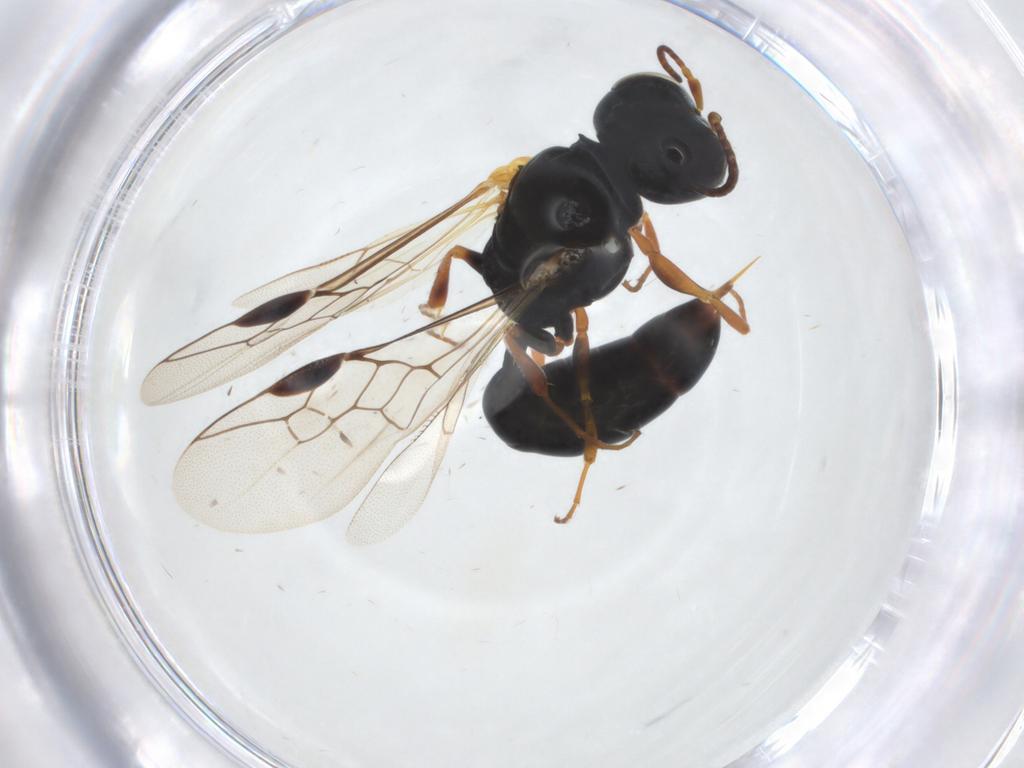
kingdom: Animalia
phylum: Arthropoda
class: Insecta
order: Hymenoptera
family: Crabronidae
